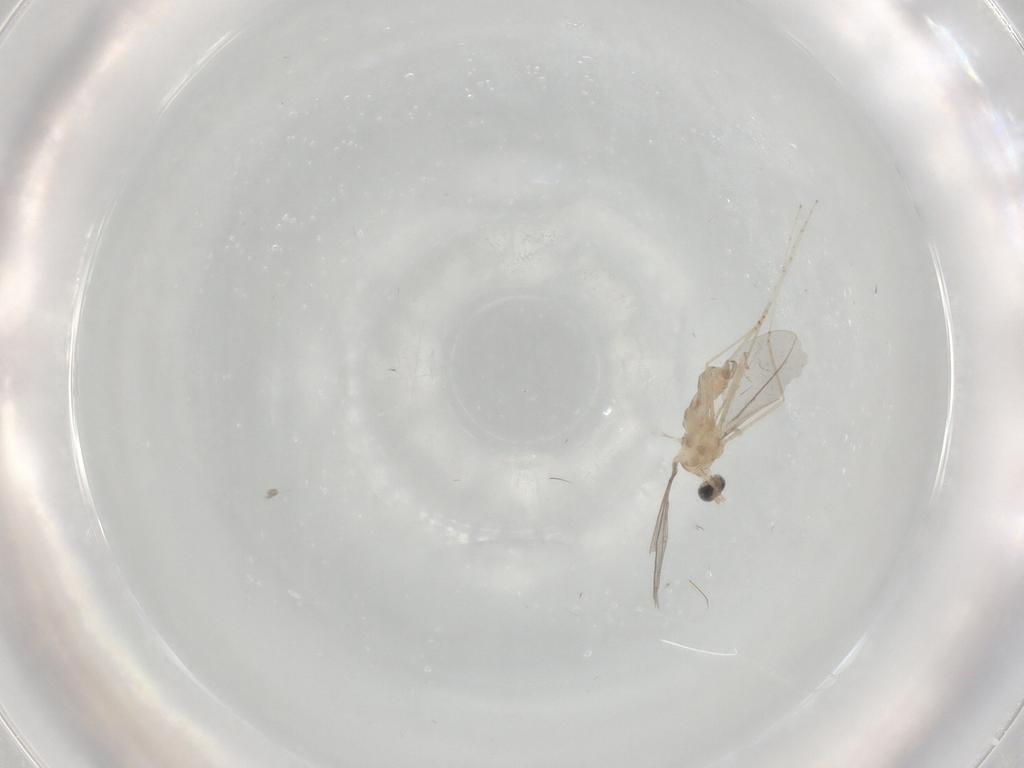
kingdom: Animalia
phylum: Arthropoda
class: Insecta
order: Diptera
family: Cecidomyiidae
